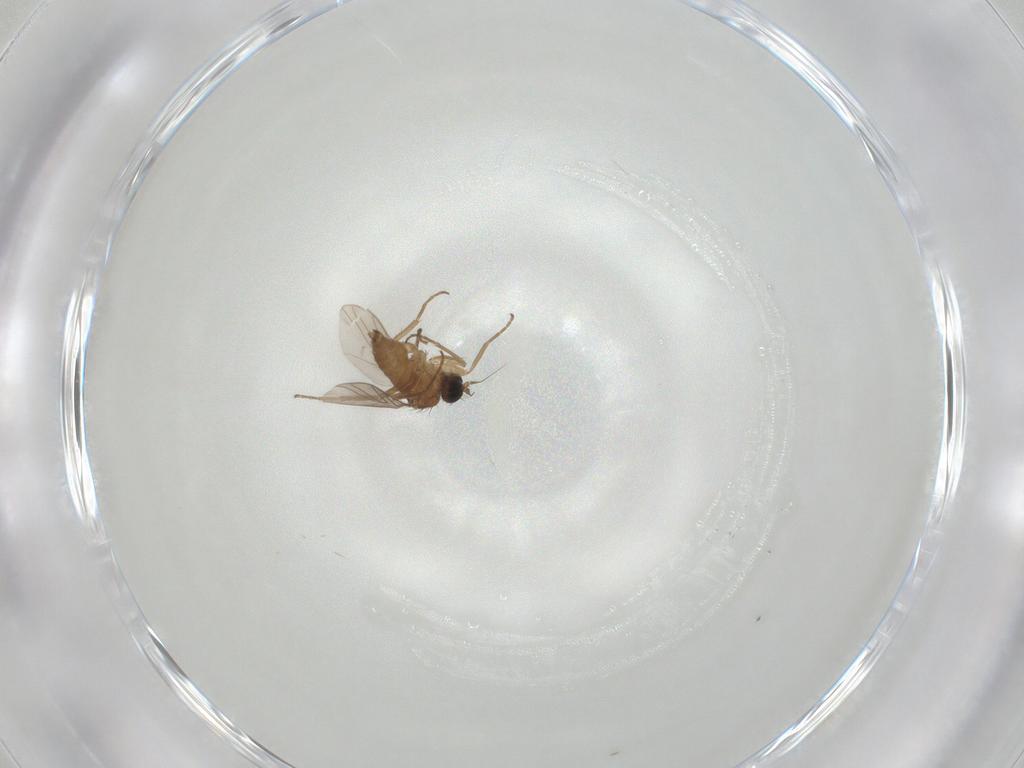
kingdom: Animalia
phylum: Arthropoda
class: Insecta
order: Diptera
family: Hybotidae
